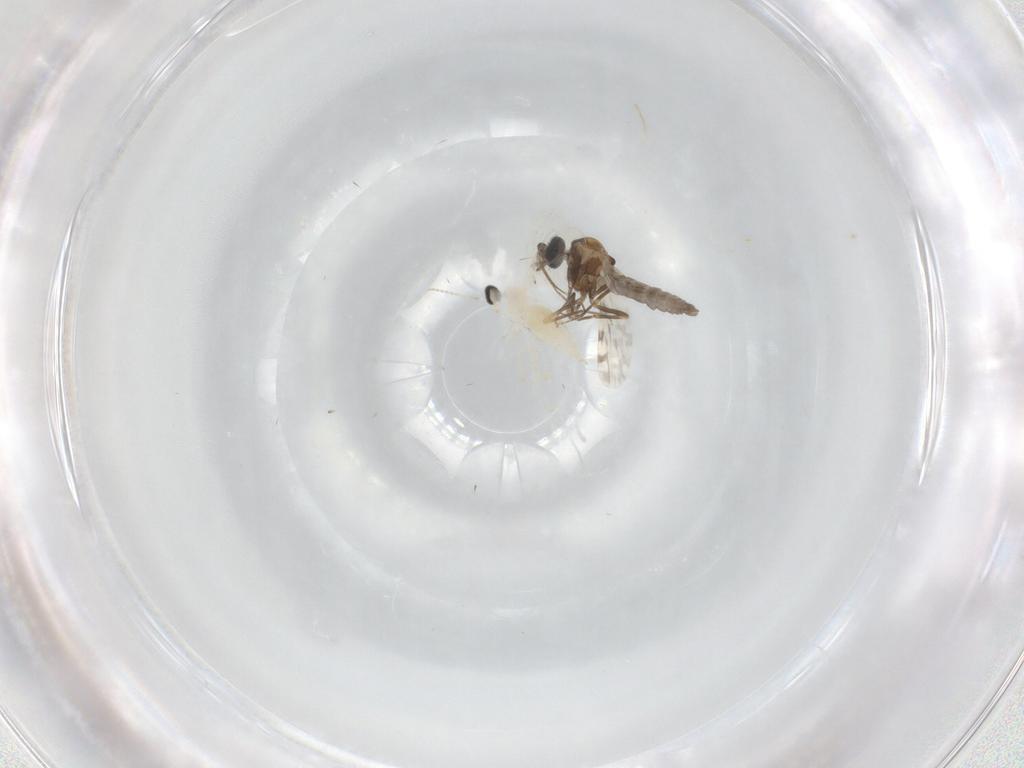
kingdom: Animalia
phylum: Arthropoda
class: Insecta
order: Diptera
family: Ceratopogonidae
